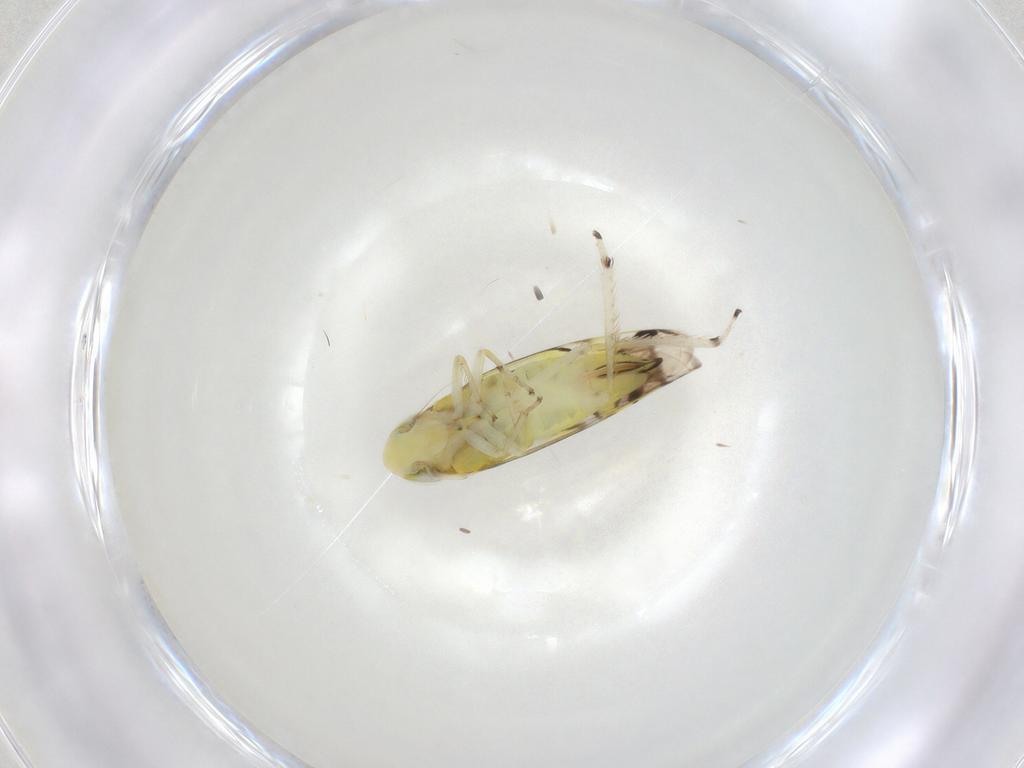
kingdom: Animalia
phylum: Arthropoda
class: Insecta
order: Hemiptera
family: Cicadellidae
